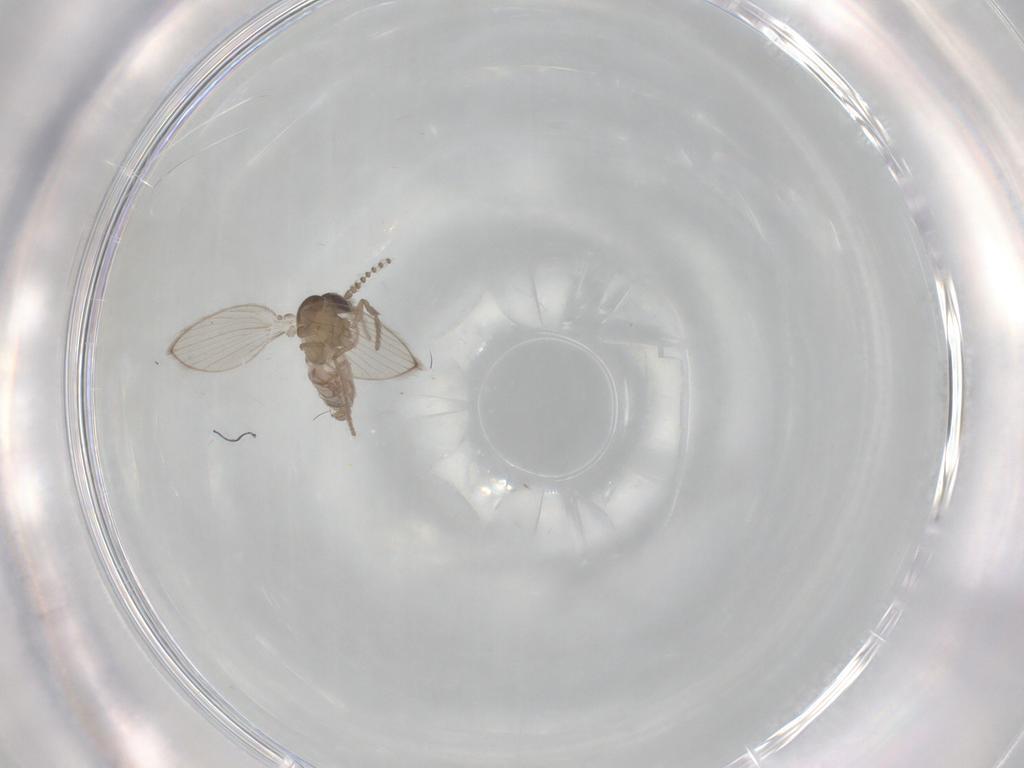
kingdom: Animalia
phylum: Arthropoda
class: Insecta
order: Diptera
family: Psychodidae
